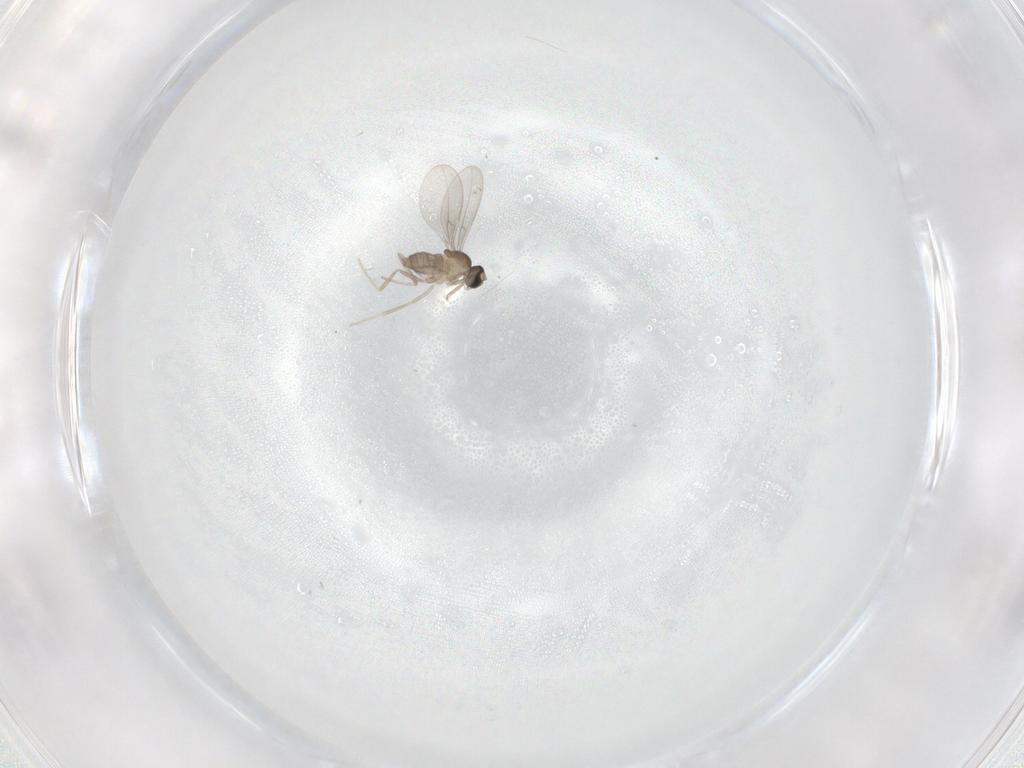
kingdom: Animalia
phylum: Arthropoda
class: Insecta
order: Diptera
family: Cecidomyiidae
